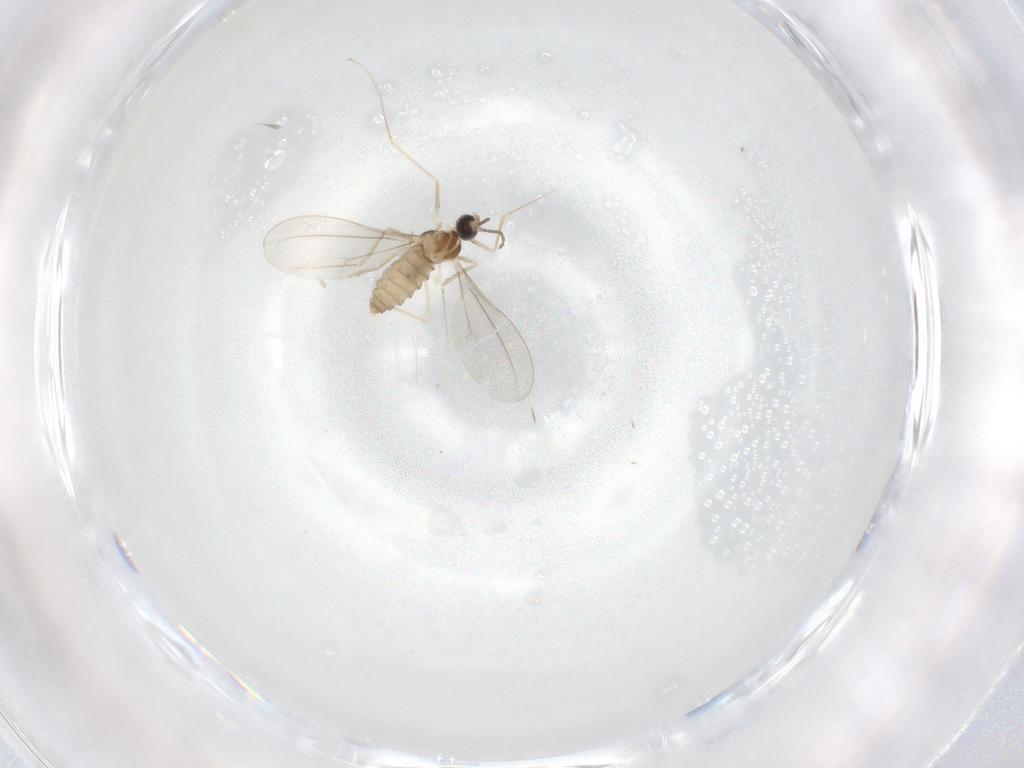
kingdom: Animalia
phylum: Arthropoda
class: Insecta
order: Diptera
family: Cecidomyiidae
